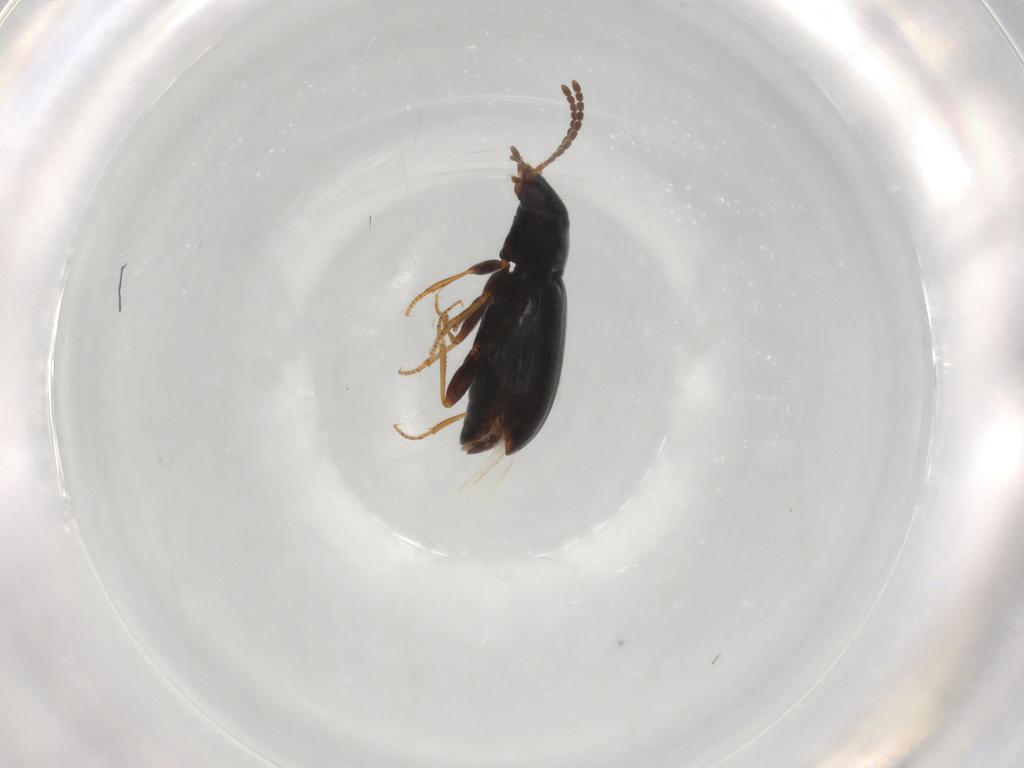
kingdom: Animalia
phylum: Arthropoda
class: Insecta
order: Coleoptera
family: Carabidae
